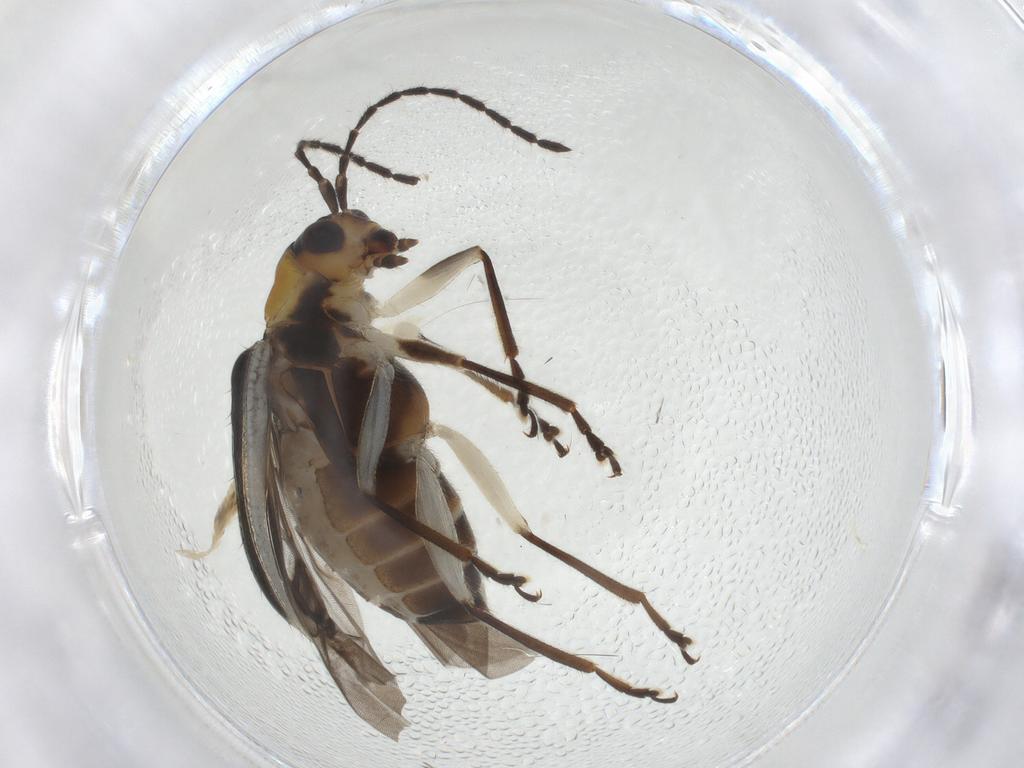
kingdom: Animalia
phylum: Arthropoda
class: Insecta
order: Coleoptera
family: Chrysomelidae
